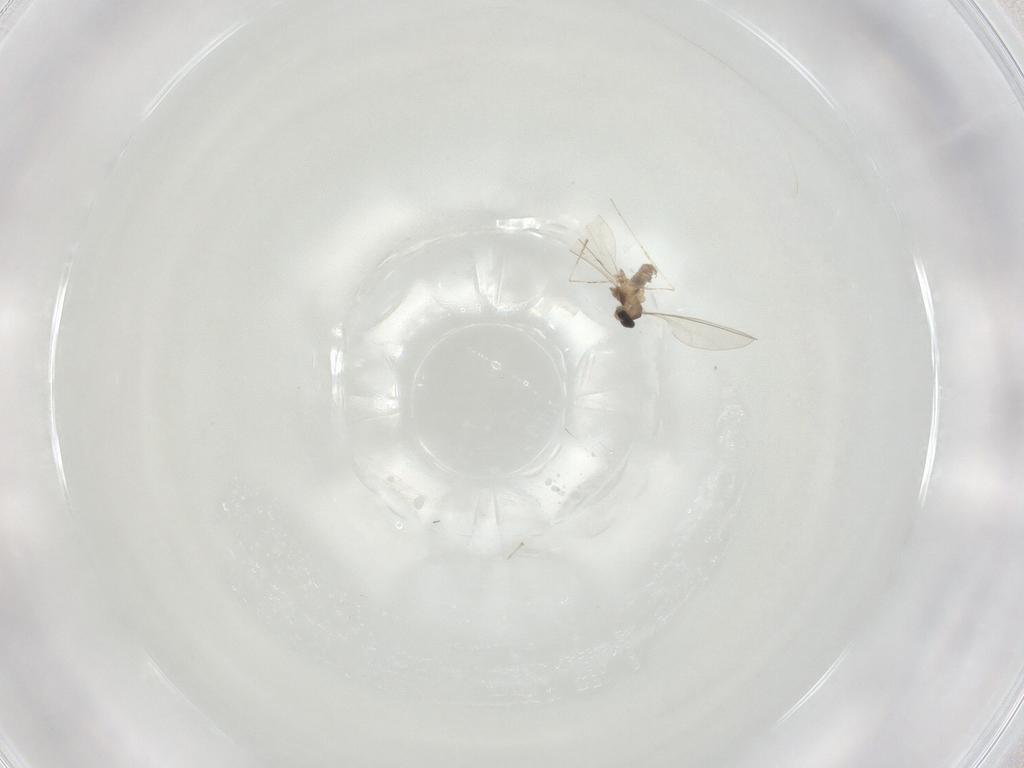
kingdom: Animalia
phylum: Arthropoda
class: Insecta
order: Diptera
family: Cecidomyiidae
